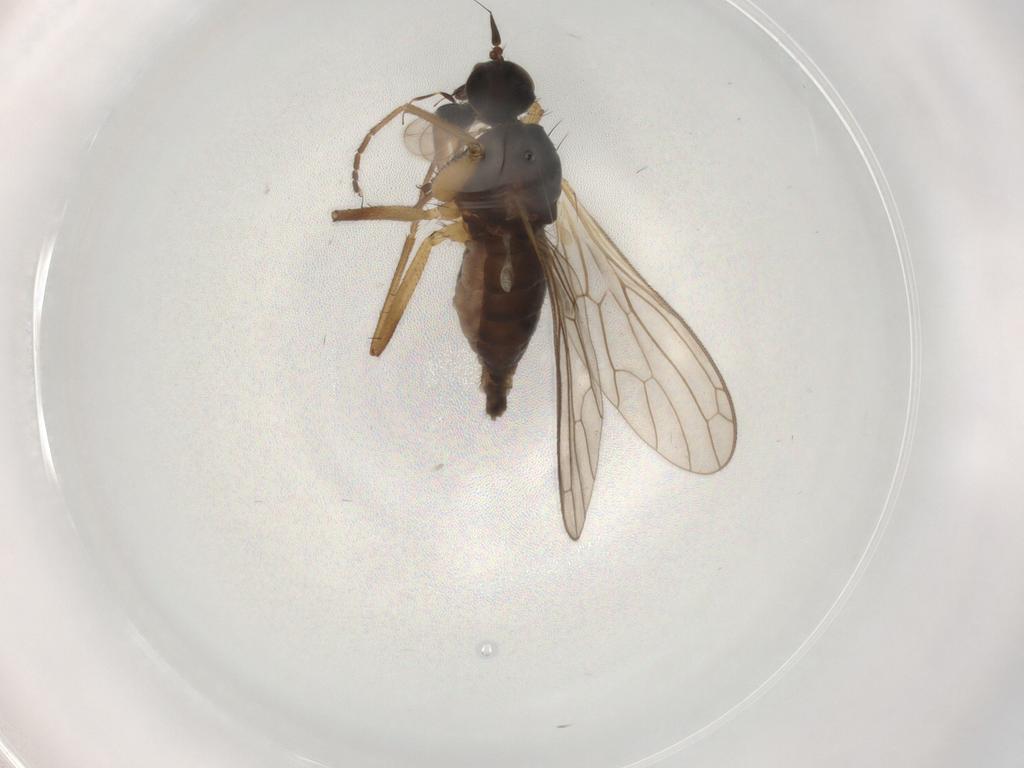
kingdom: Animalia
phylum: Arthropoda
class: Insecta
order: Diptera
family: Empididae
